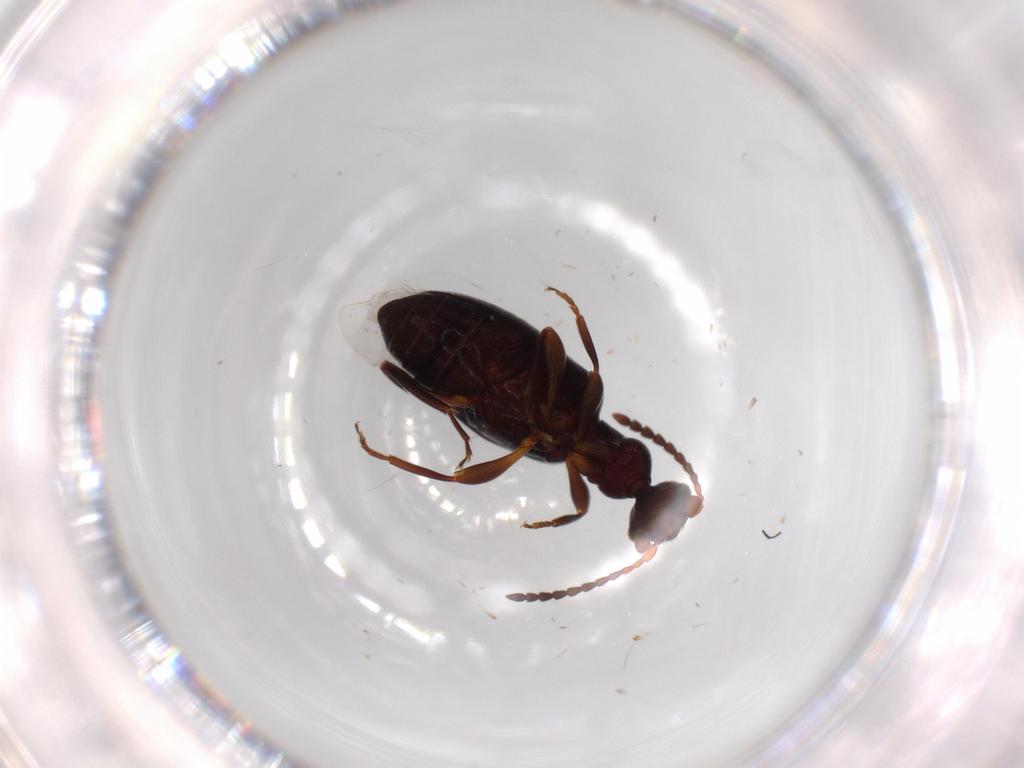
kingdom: Animalia
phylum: Arthropoda
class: Insecta
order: Coleoptera
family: Anthicidae
